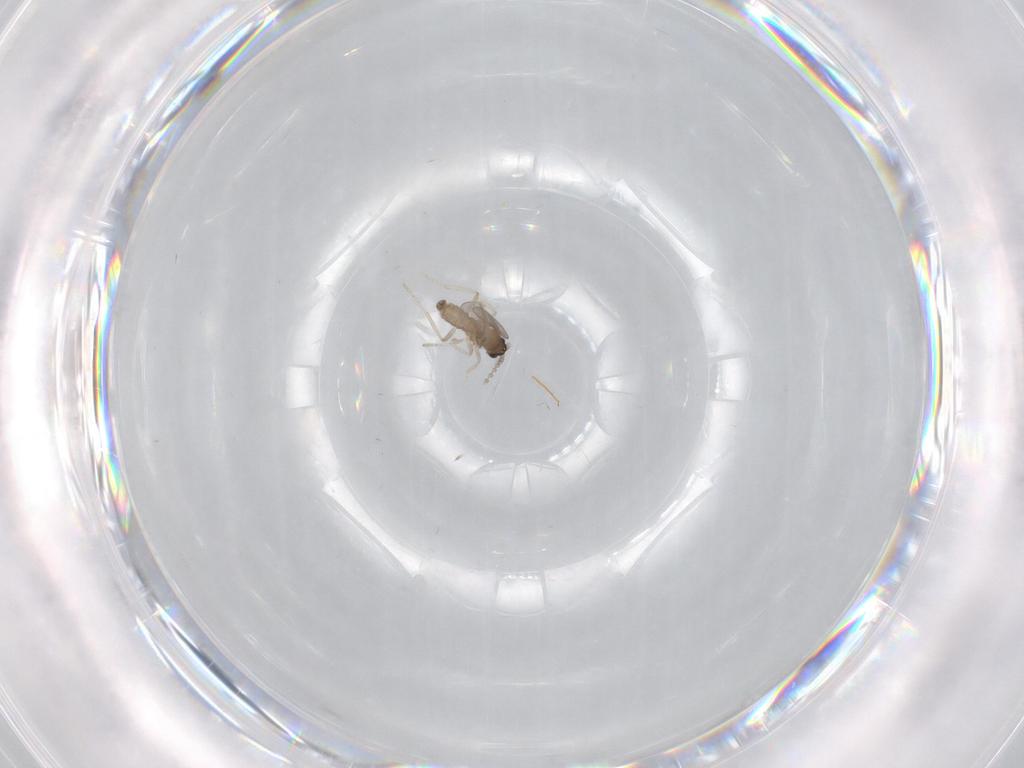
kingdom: Animalia
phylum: Arthropoda
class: Insecta
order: Diptera
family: Cecidomyiidae
